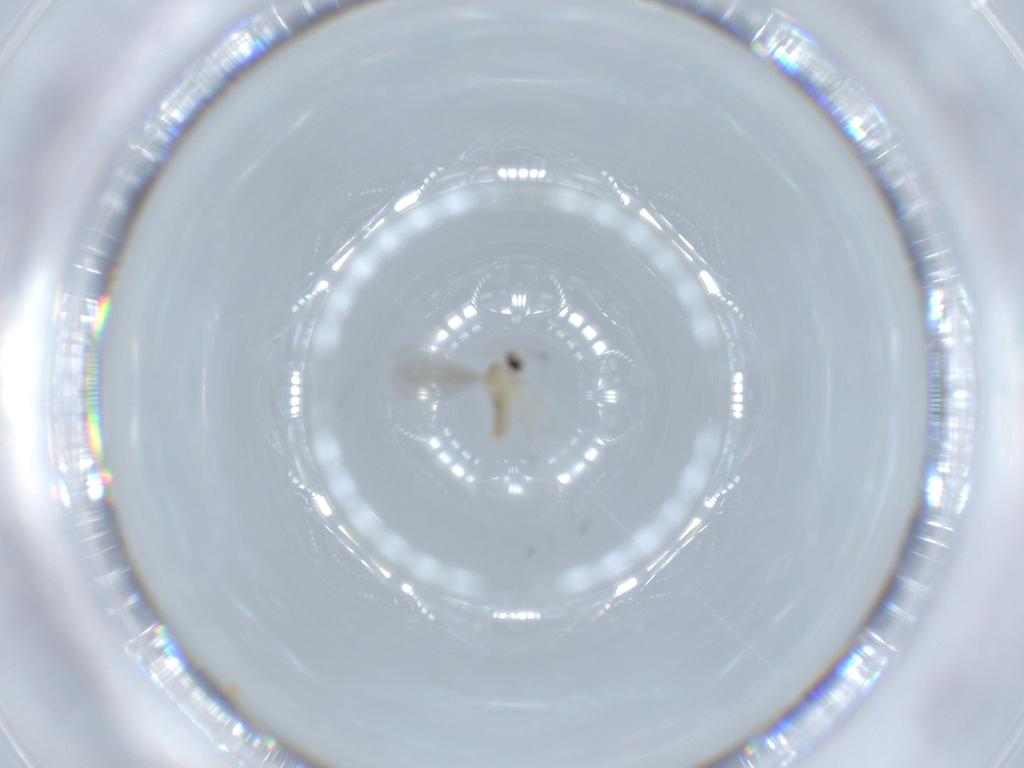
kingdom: Animalia
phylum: Arthropoda
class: Insecta
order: Diptera
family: Cecidomyiidae
